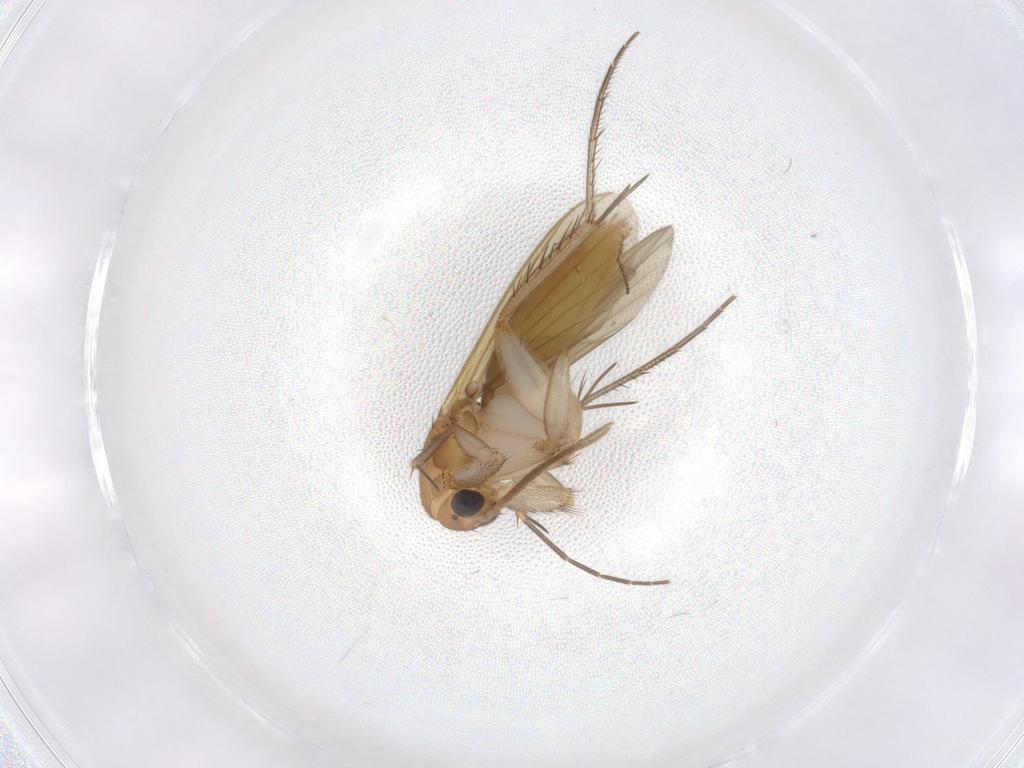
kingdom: Animalia
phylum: Arthropoda
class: Insecta
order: Diptera
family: Mycetophilidae
